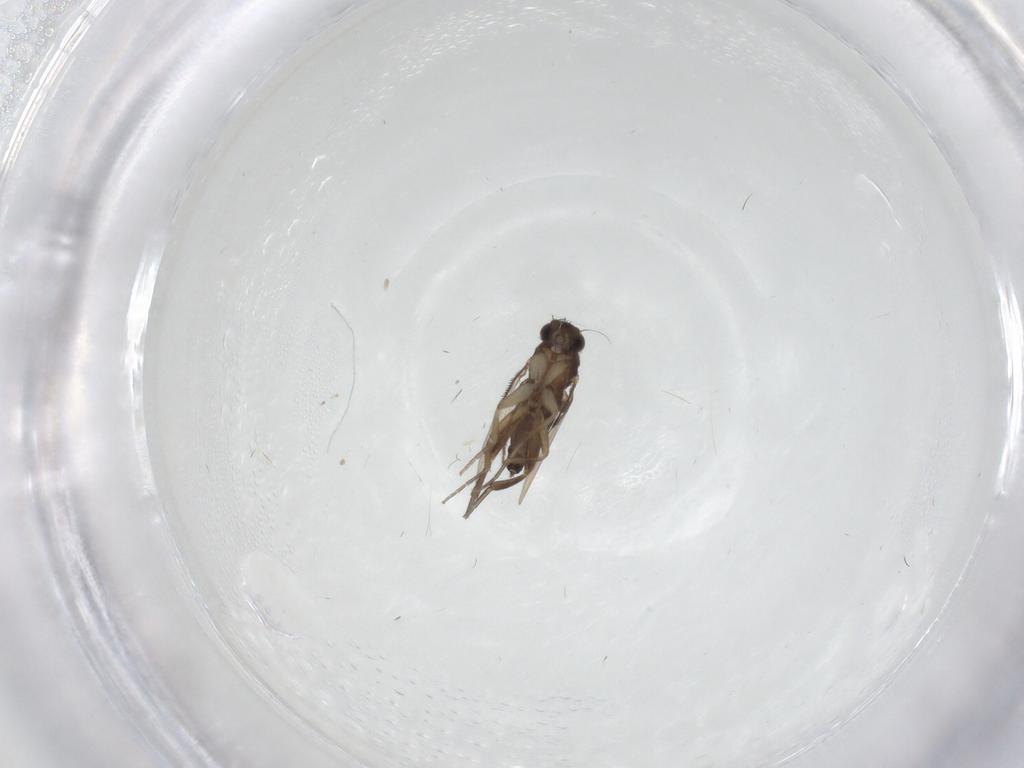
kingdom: Animalia
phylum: Arthropoda
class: Insecta
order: Diptera
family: Phoridae
